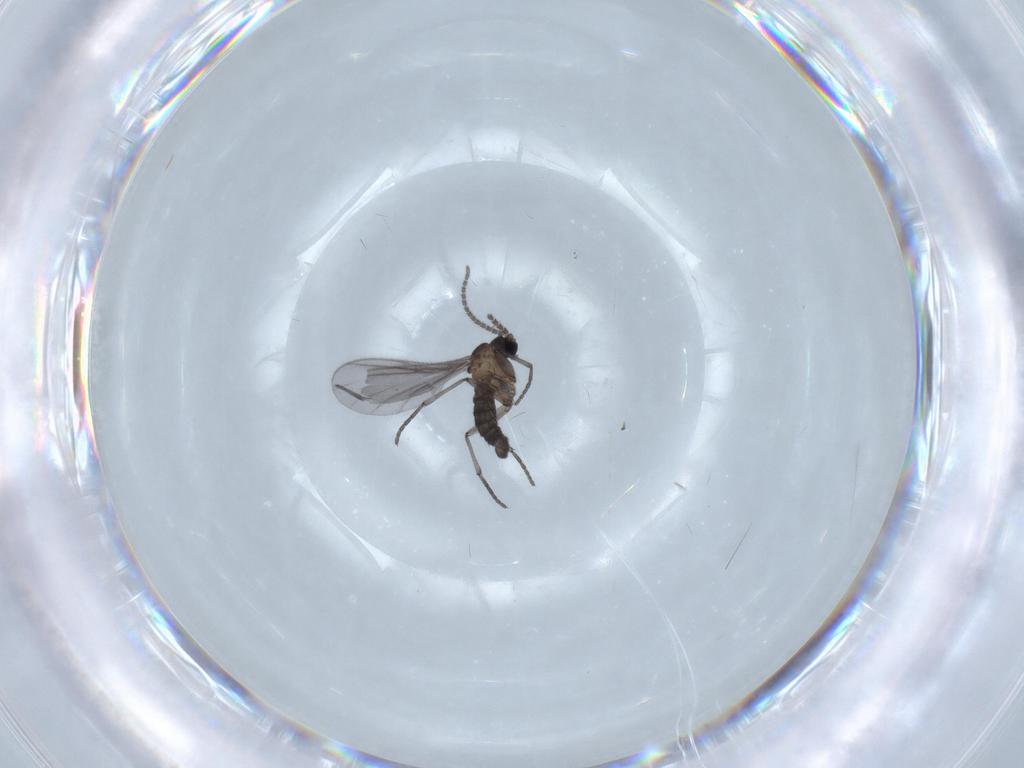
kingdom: Animalia
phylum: Arthropoda
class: Insecta
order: Diptera
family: Sciaridae
